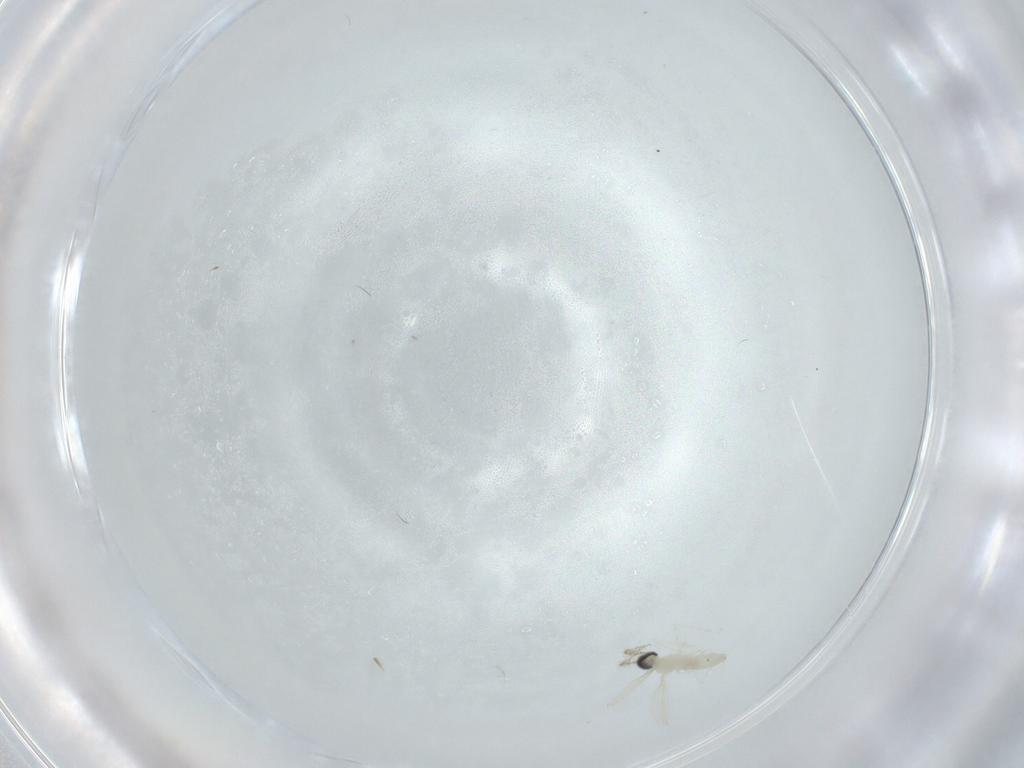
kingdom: Animalia
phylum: Arthropoda
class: Insecta
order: Diptera
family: Cecidomyiidae
